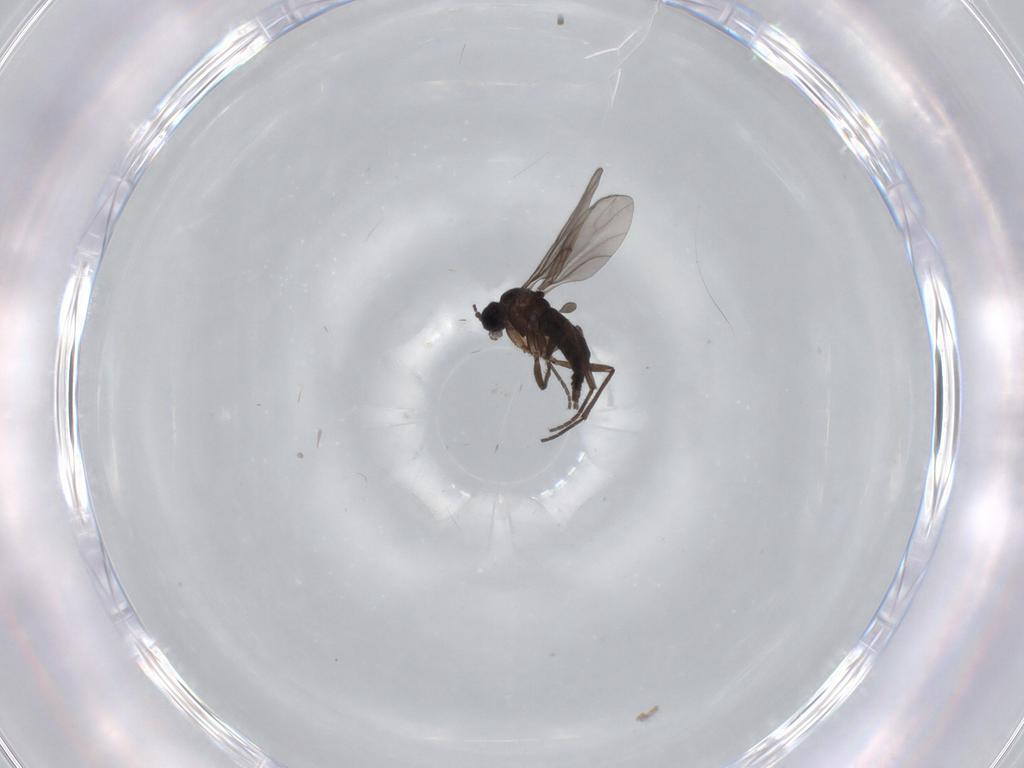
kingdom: Animalia
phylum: Arthropoda
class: Insecta
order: Diptera
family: Sciaridae
